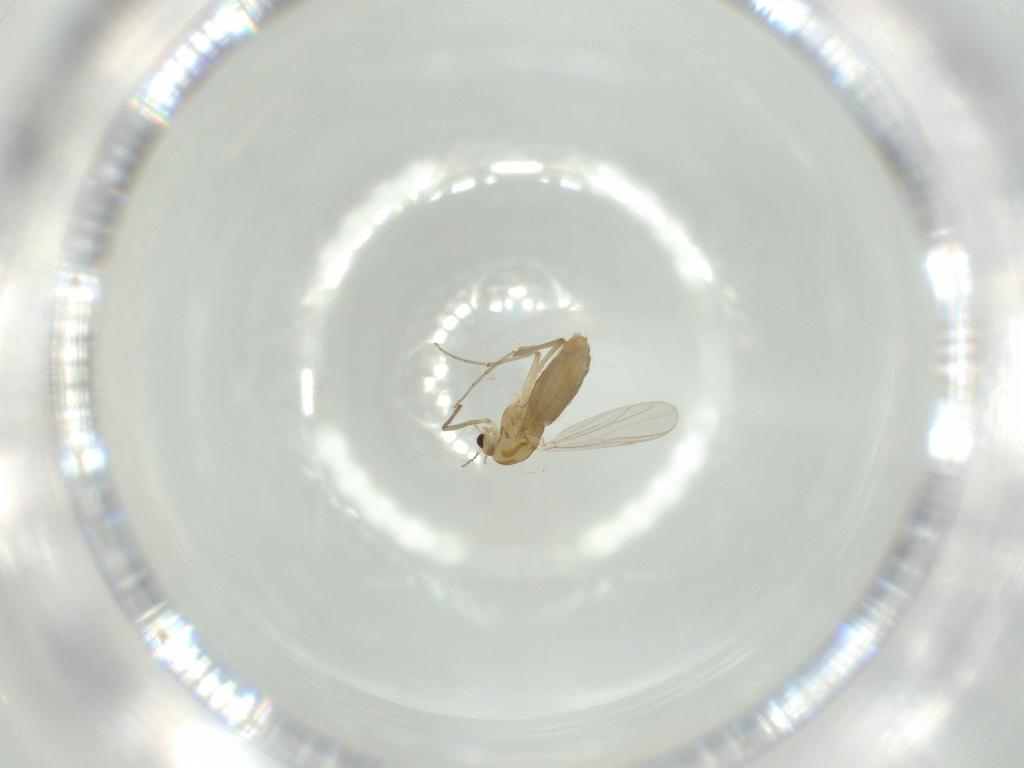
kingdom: Animalia
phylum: Arthropoda
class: Insecta
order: Diptera
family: Chironomidae
